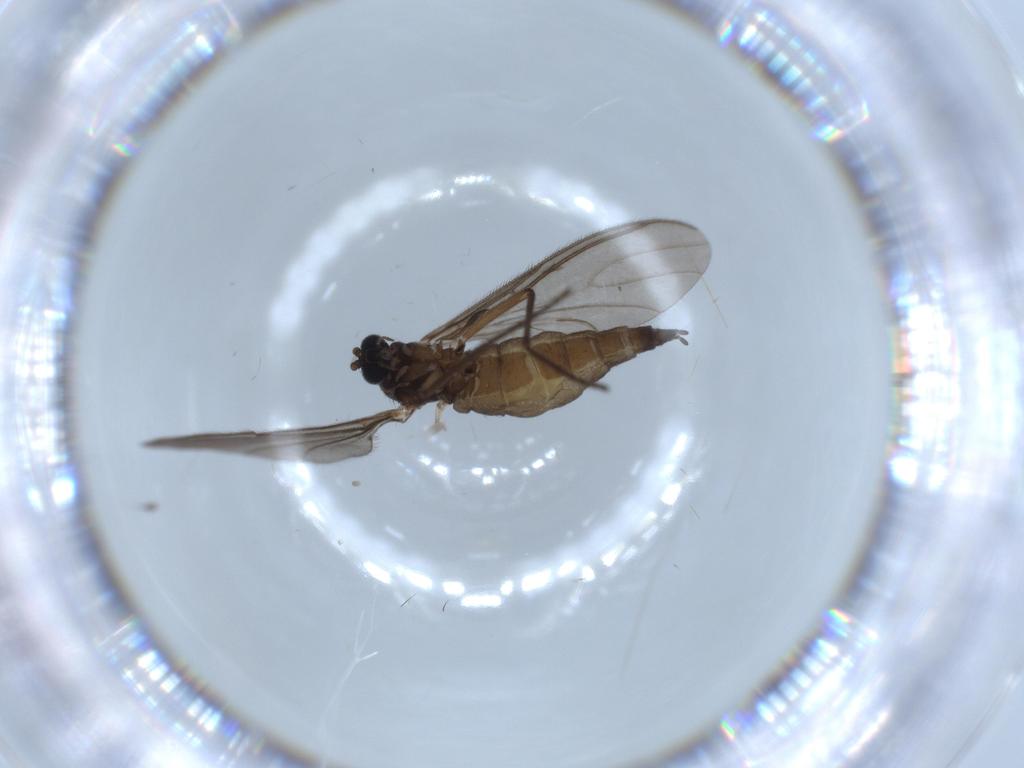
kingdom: Animalia
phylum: Arthropoda
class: Insecta
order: Diptera
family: Sciaridae
